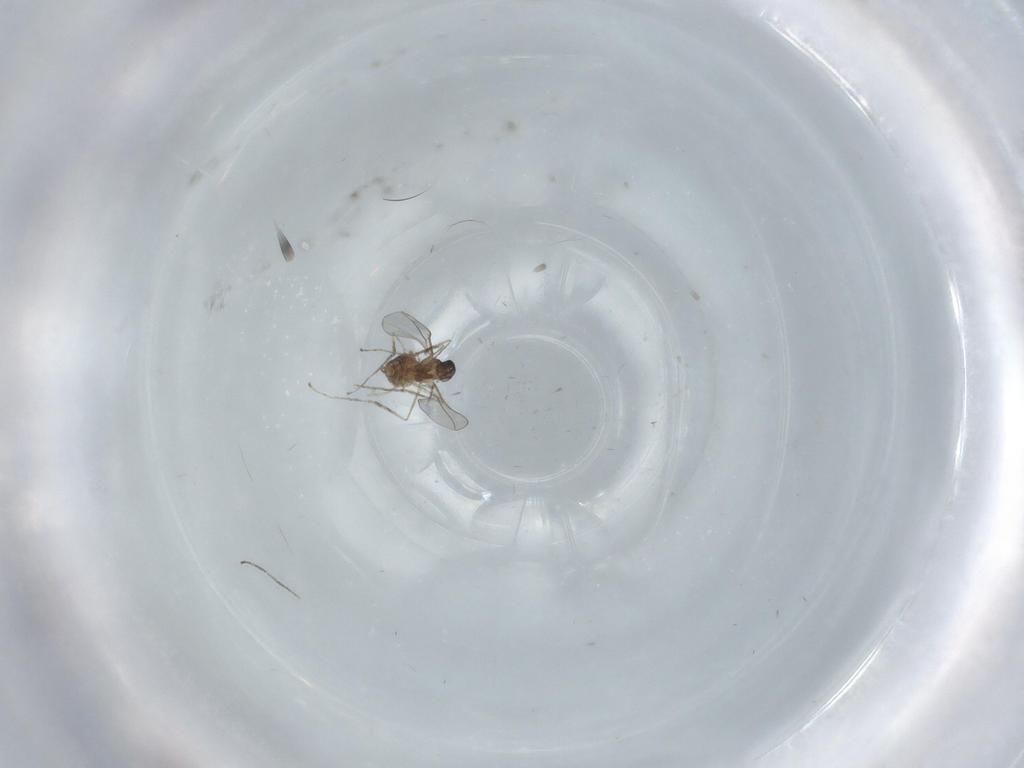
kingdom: Animalia
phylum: Arthropoda
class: Insecta
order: Diptera
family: Cecidomyiidae
